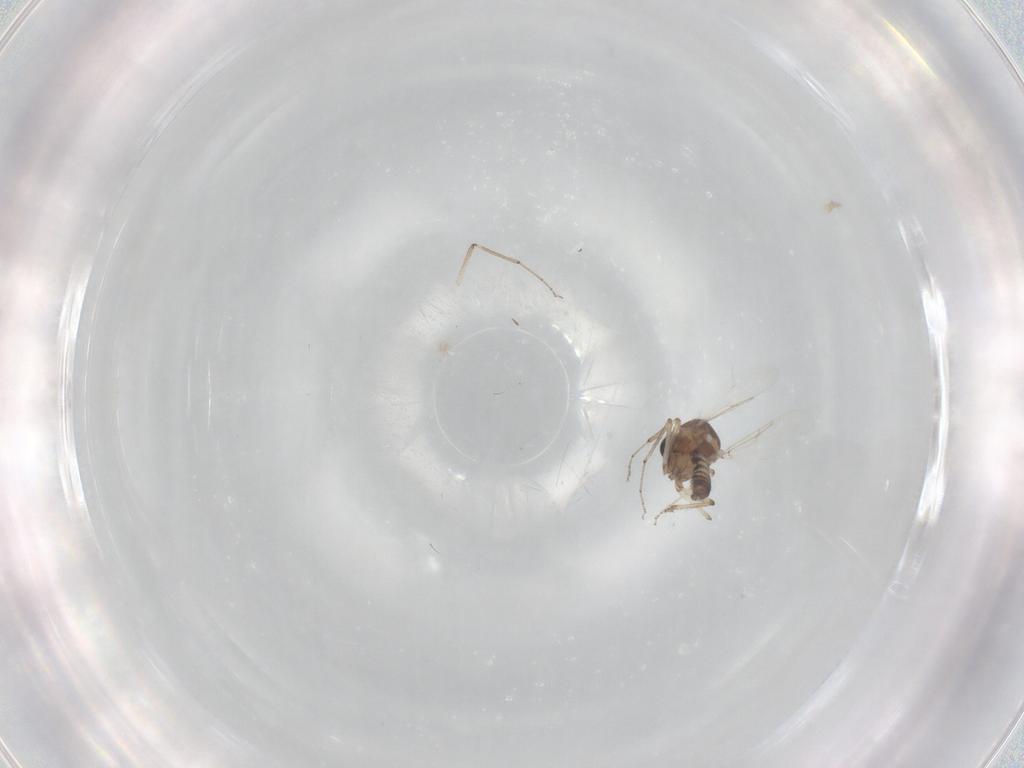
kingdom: Animalia
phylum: Arthropoda
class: Insecta
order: Diptera
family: Ceratopogonidae
